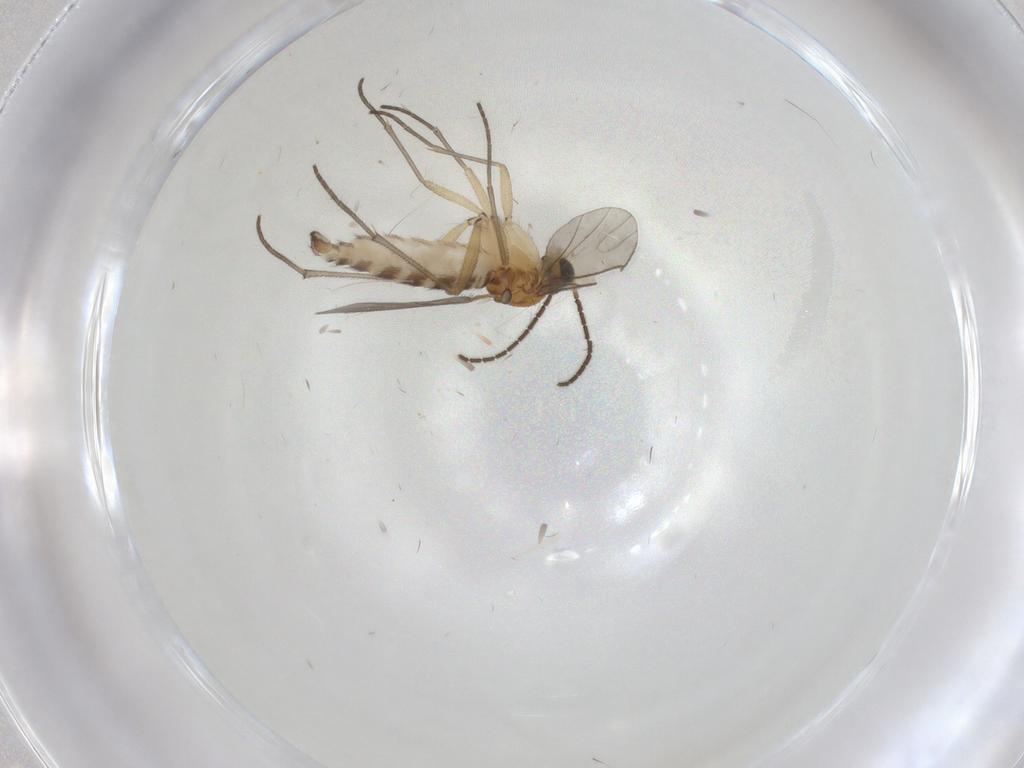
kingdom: Animalia
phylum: Arthropoda
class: Insecta
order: Diptera
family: Sciaridae
